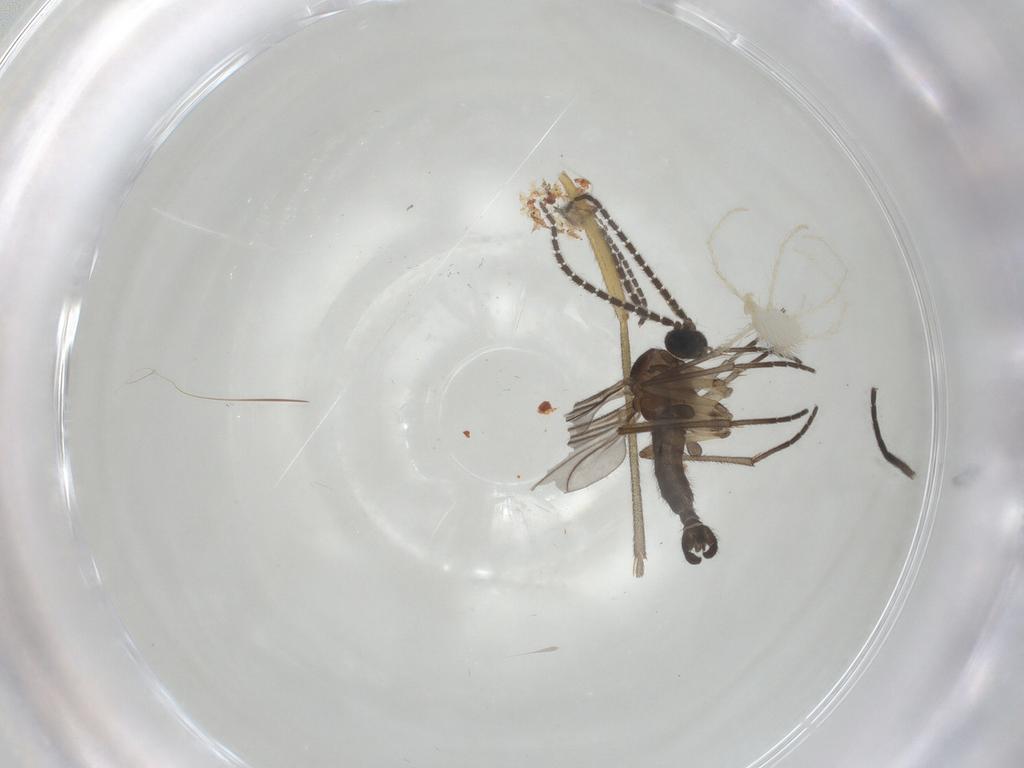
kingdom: Animalia
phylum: Arthropoda
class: Insecta
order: Diptera
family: Sciaridae
